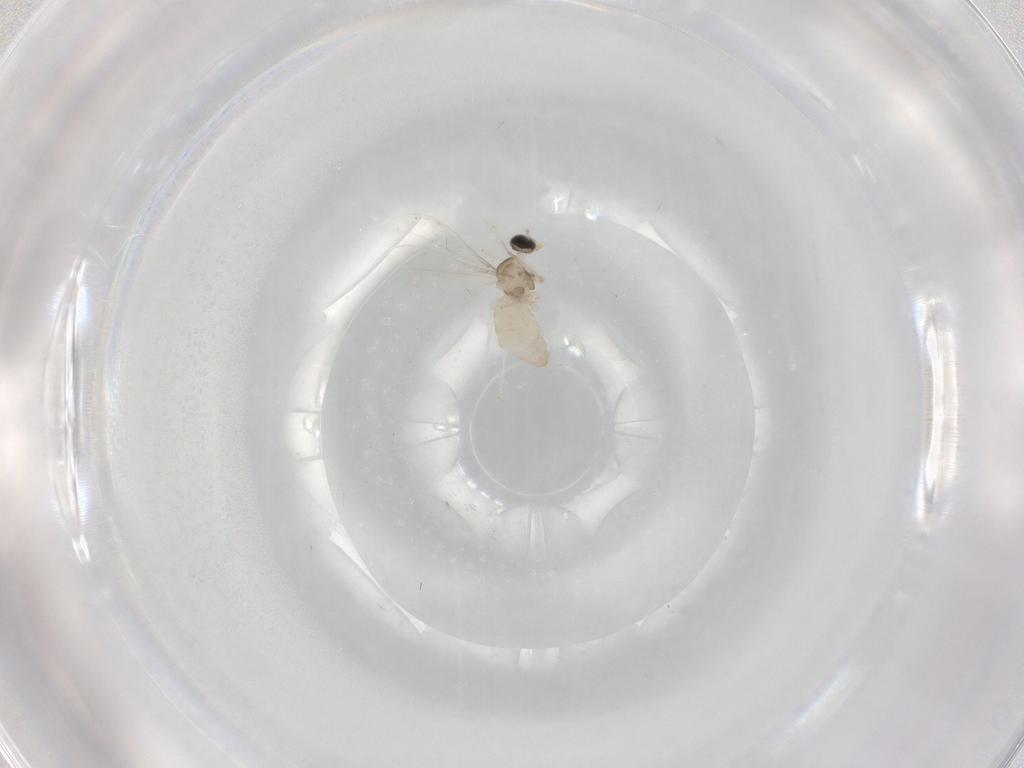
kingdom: Animalia
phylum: Arthropoda
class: Insecta
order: Diptera
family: Cecidomyiidae
